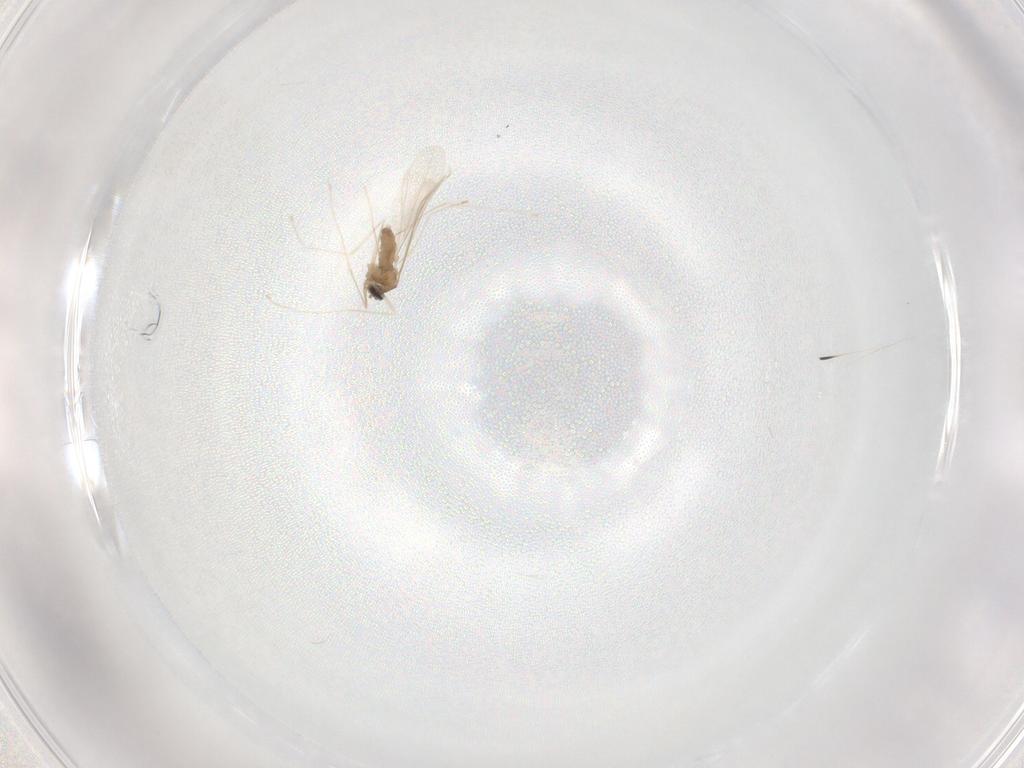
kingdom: Animalia
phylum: Arthropoda
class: Insecta
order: Diptera
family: Cecidomyiidae
